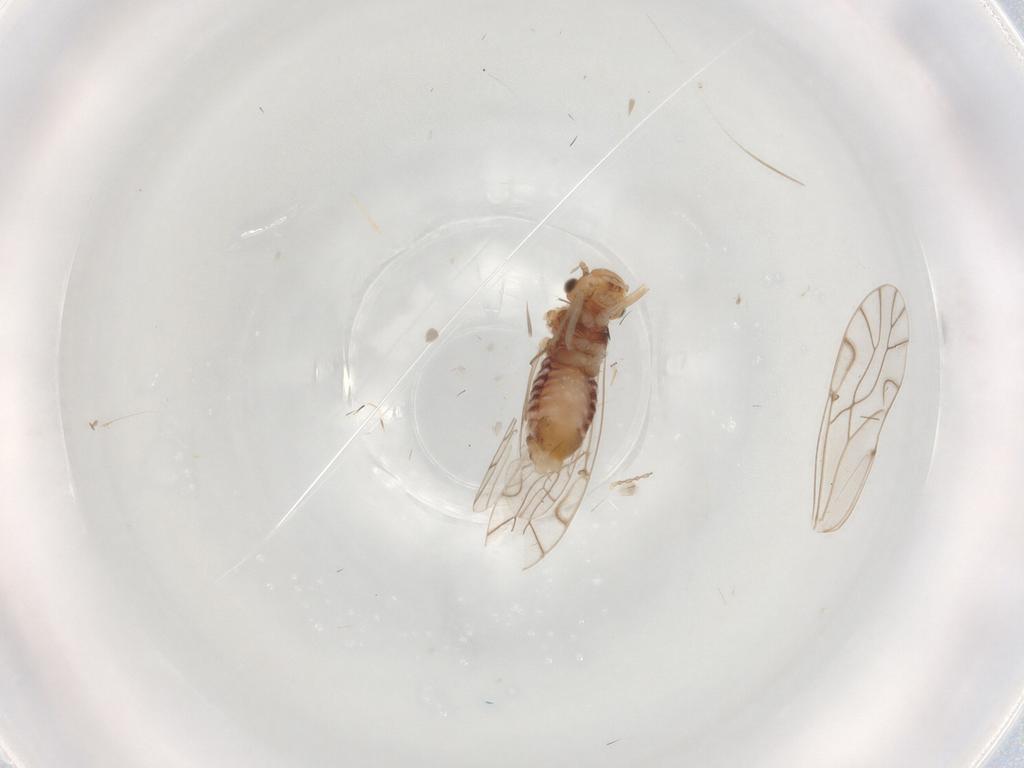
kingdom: Animalia
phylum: Arthropoda
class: Insecta
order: Psocodea
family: Lachesillidae
